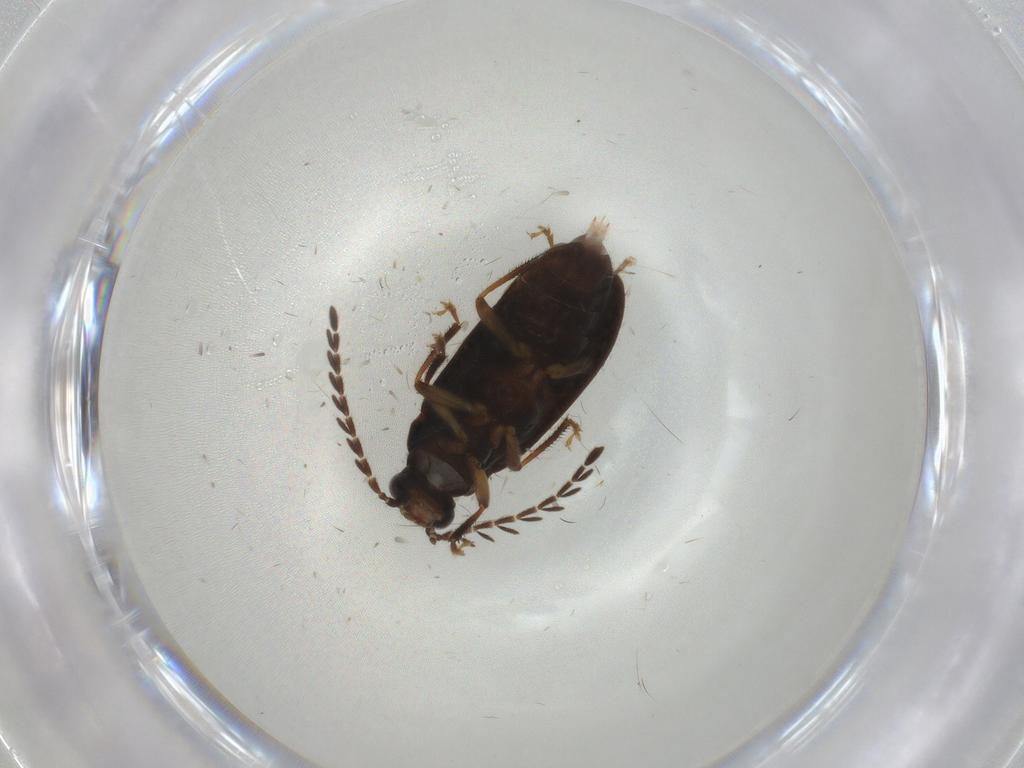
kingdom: Animalia
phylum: Arthropoda
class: Insecta
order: Coleoptera
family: Ptilodactylidae
